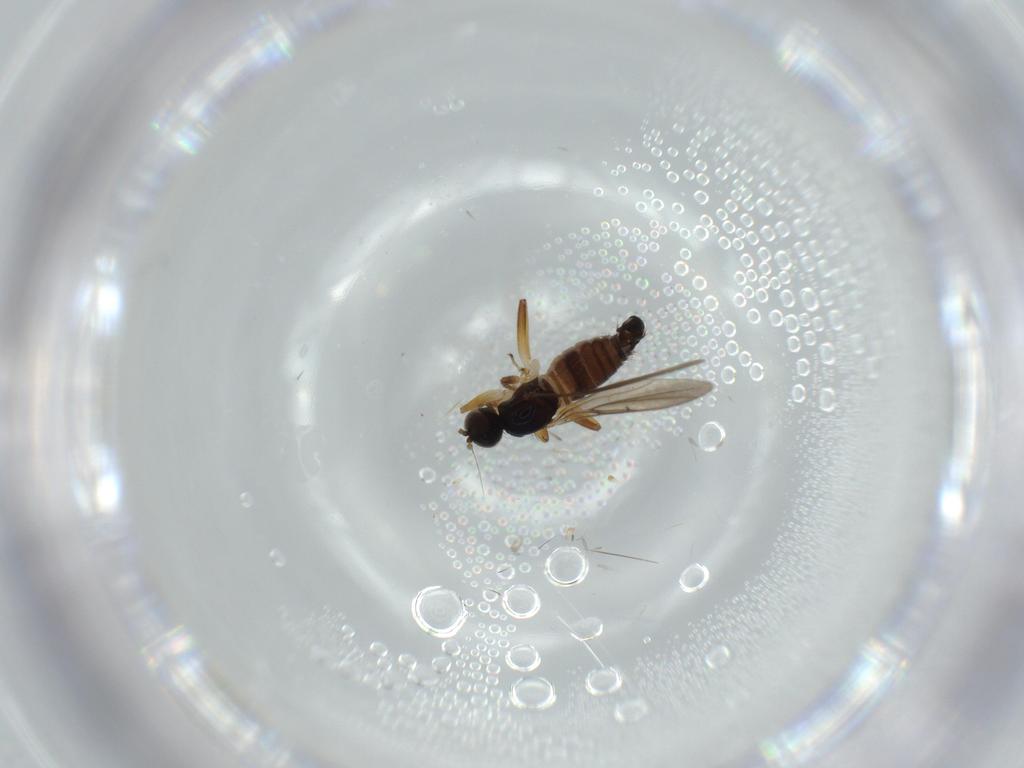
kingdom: Animalia
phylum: Arthropoda
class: Insecta
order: Diptera
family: Hybotidae
